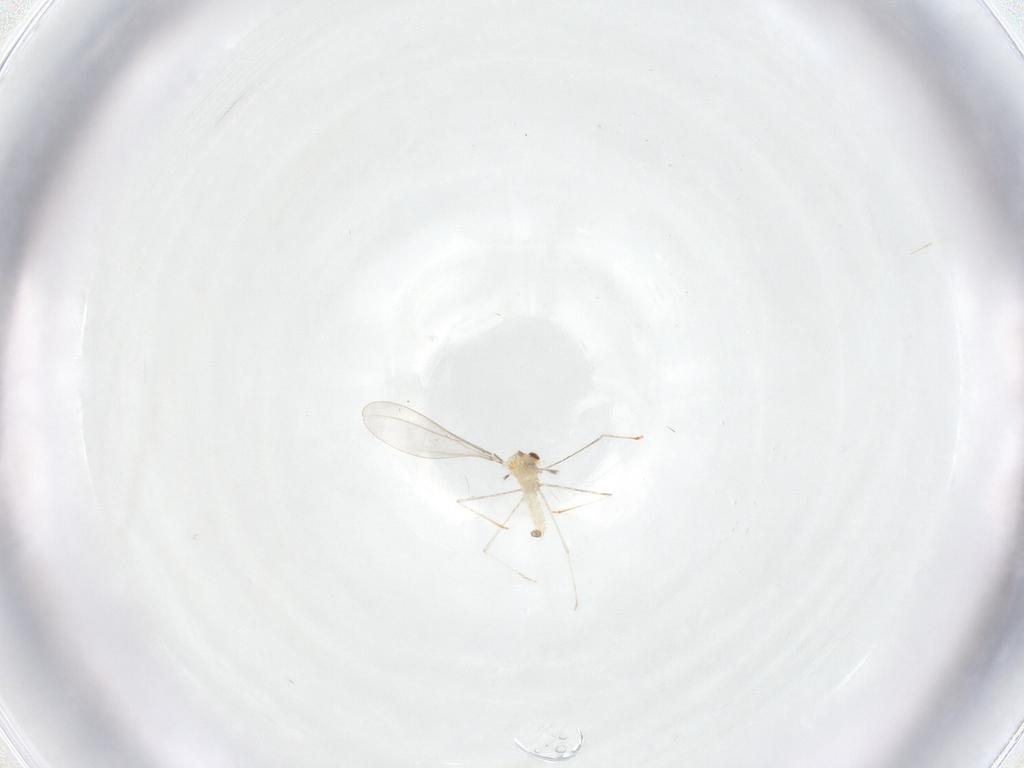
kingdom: Animalia
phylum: Arthropoda
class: Insecta
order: Diptera
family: Cecidomyiidae
